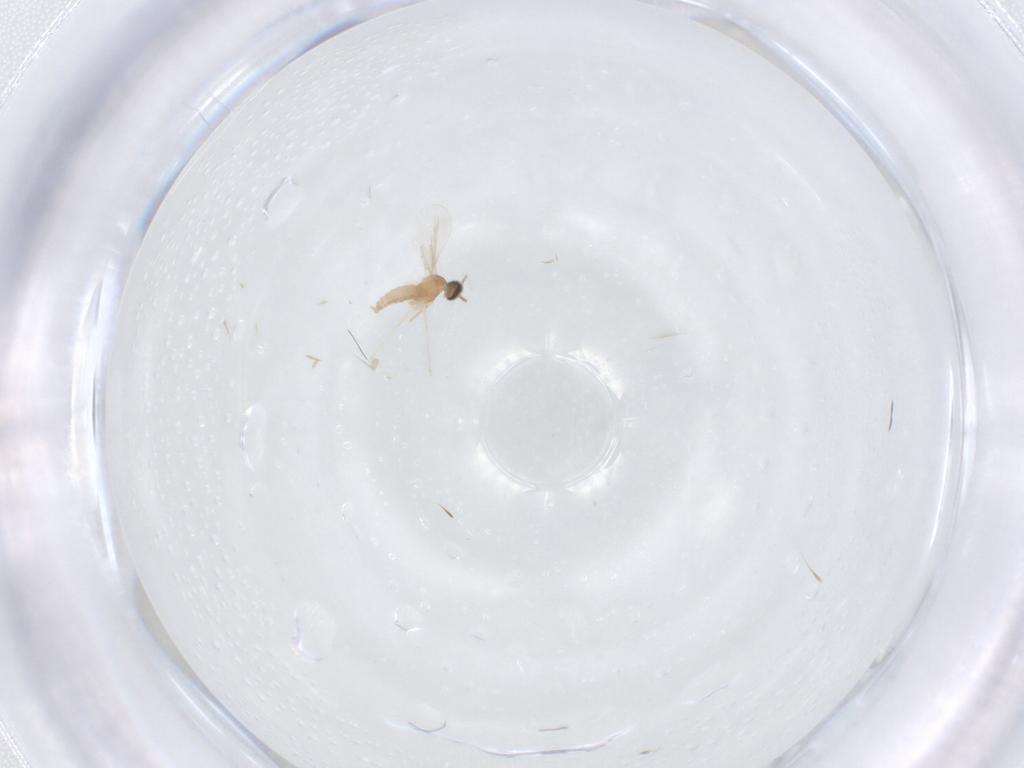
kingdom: Animalia
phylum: Arthropoda
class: Insecta
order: Diptera
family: Cecidomyiidae
